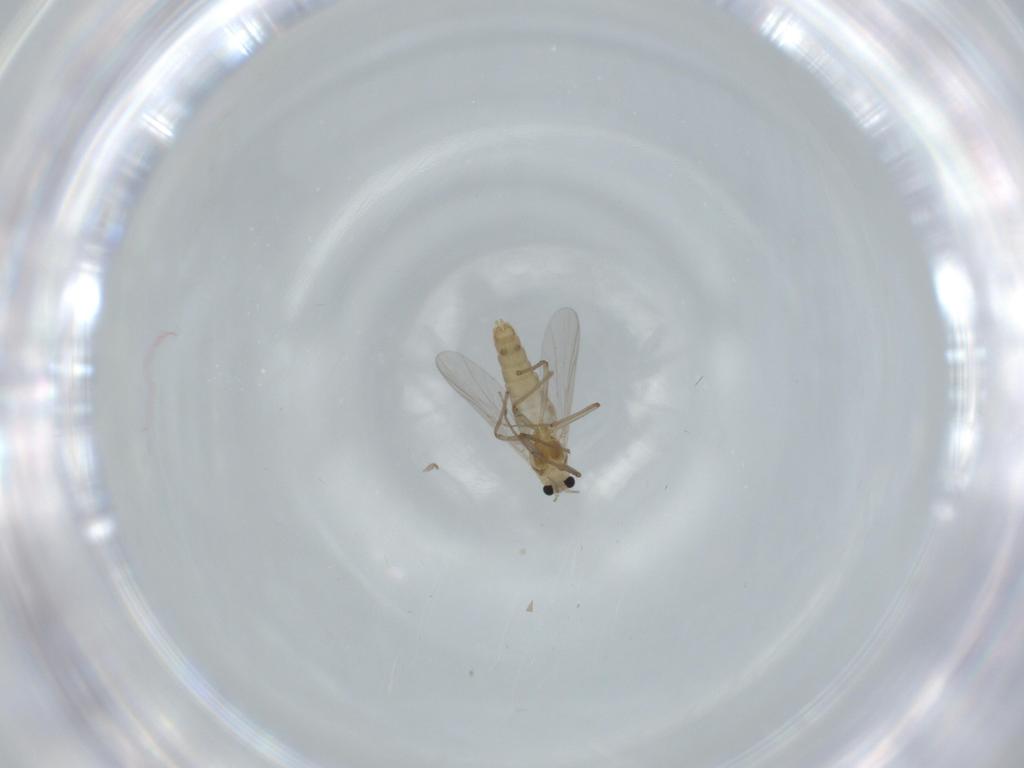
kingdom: Animalia
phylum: Arthropoda
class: Insecta
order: Diptera
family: Chironomidae
